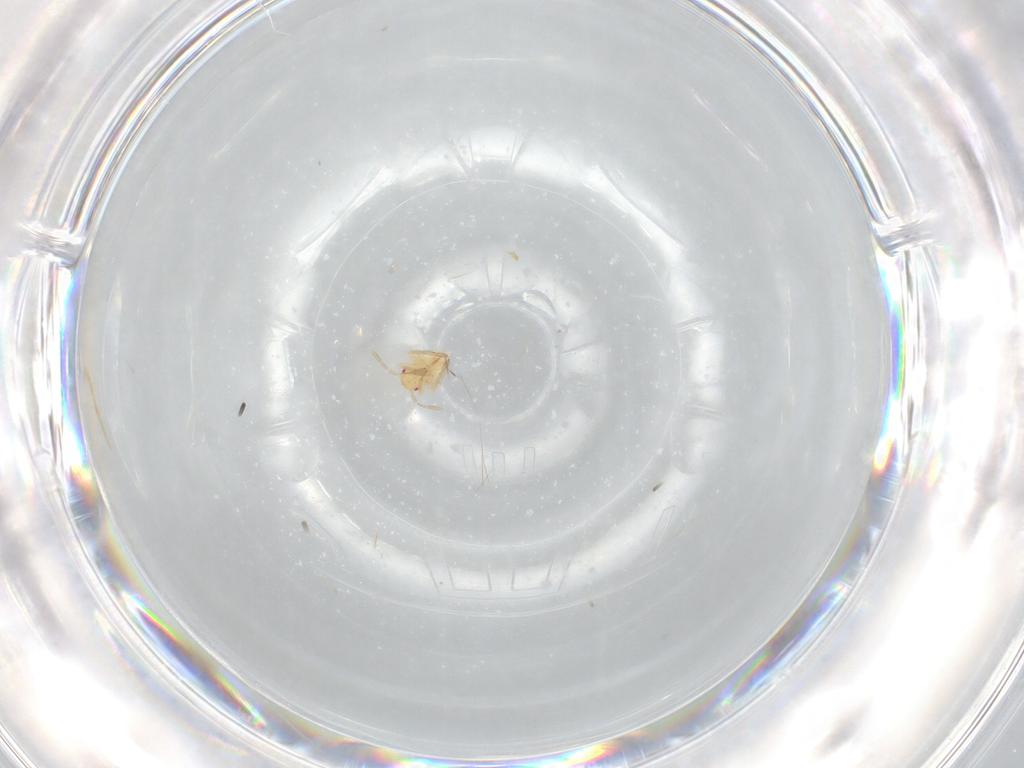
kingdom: Animalia
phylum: Arthropoda
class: Insecta
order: Hemiptera
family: Miridae
